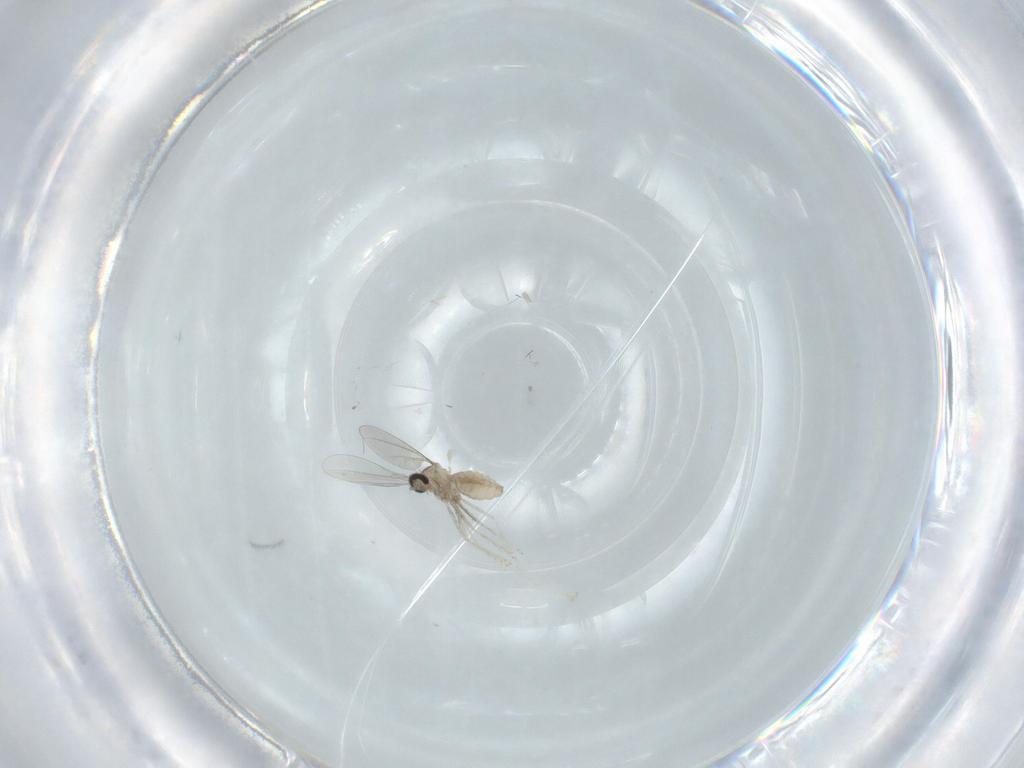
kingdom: Animalia
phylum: Arthropoda
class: Insecta
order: Diptera
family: Cecidomyiidae
